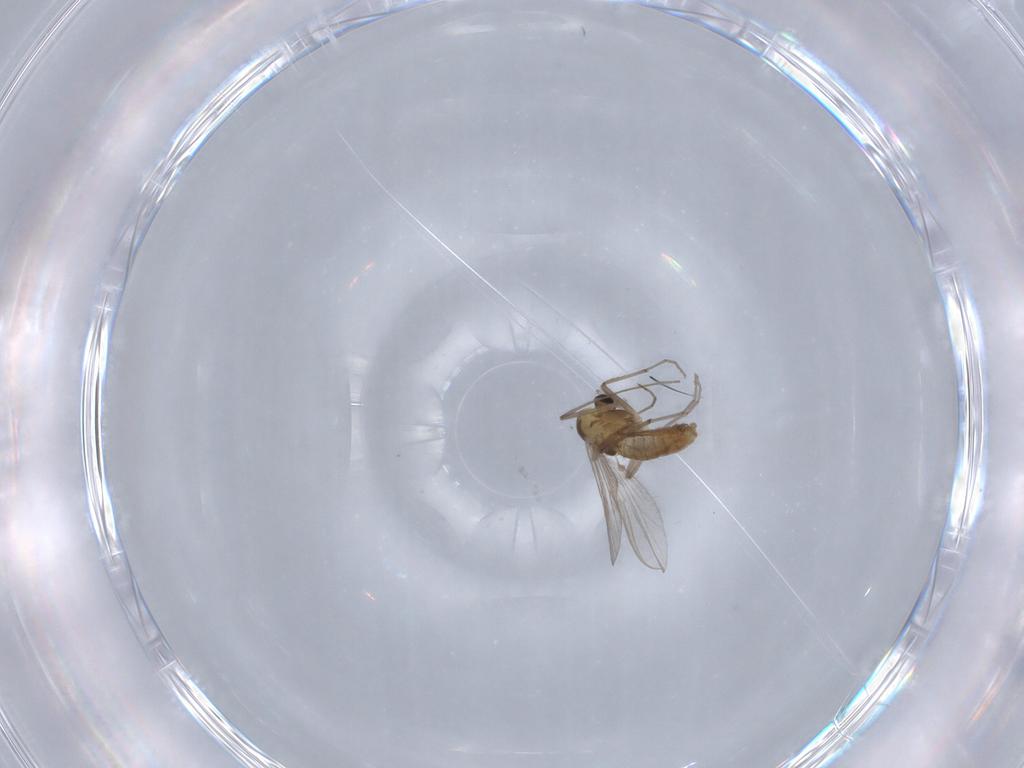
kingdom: Animalia
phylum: Arthropoda
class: Insecta
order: Diptera
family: Chironomidae
